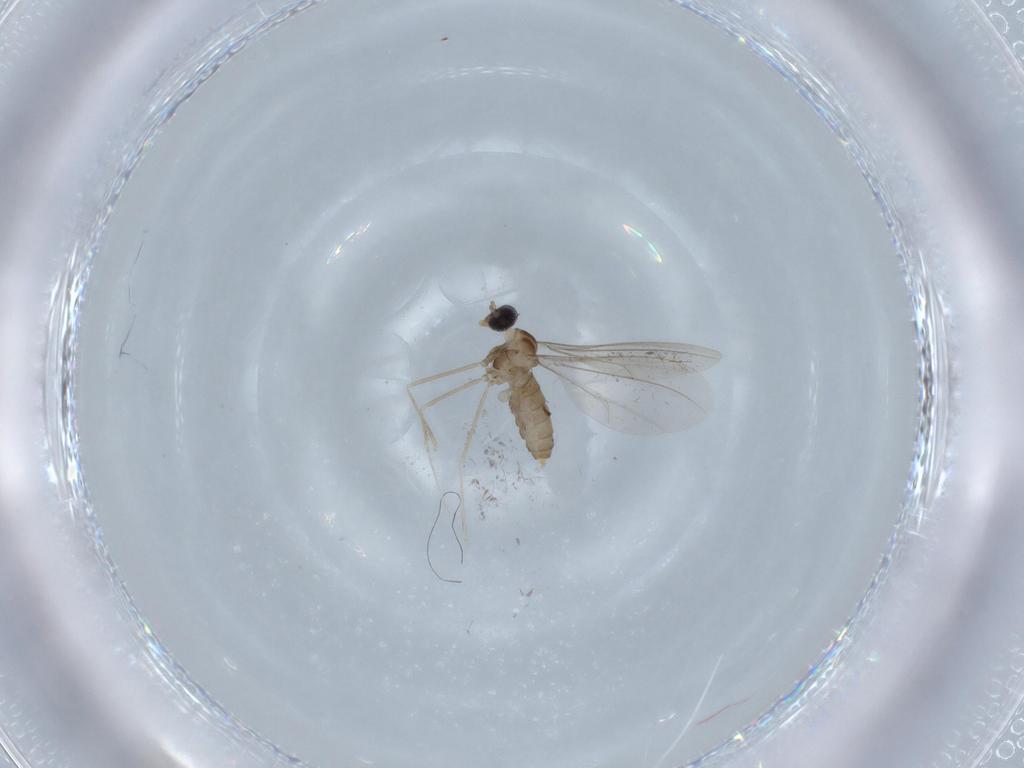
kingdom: Animalia
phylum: Arthropoda
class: Insecta
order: Diptera
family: Cecidomyiidae
